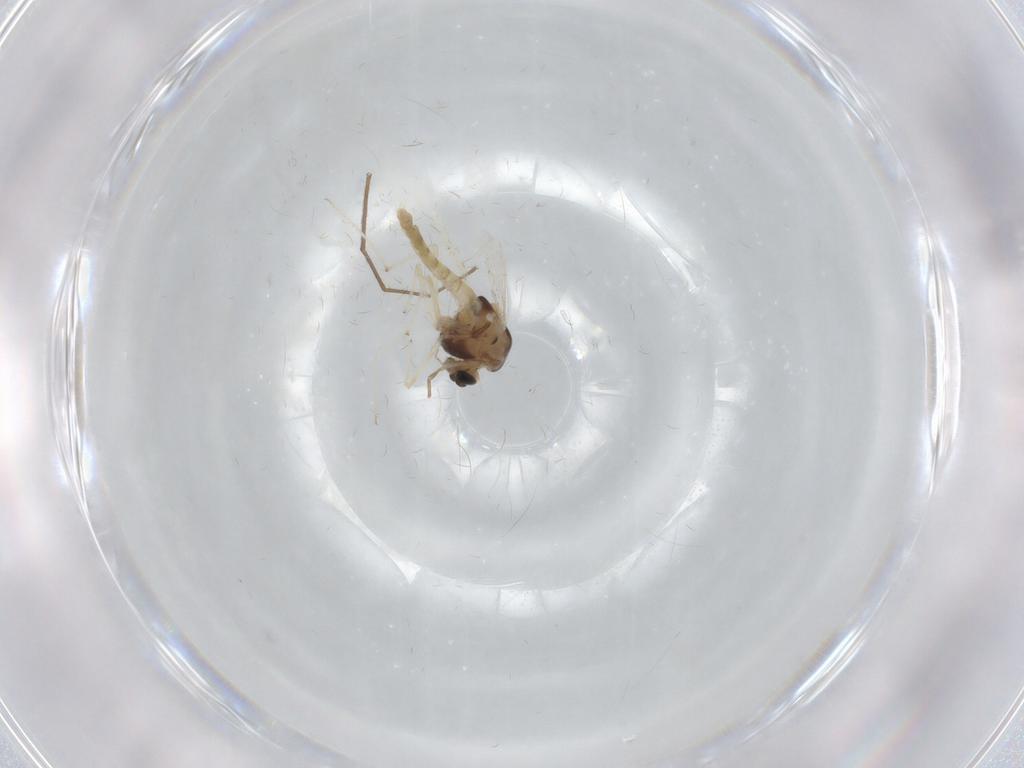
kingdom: Animalia
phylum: Arthropoda
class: Insecta
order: Diptera
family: Chironomidae
